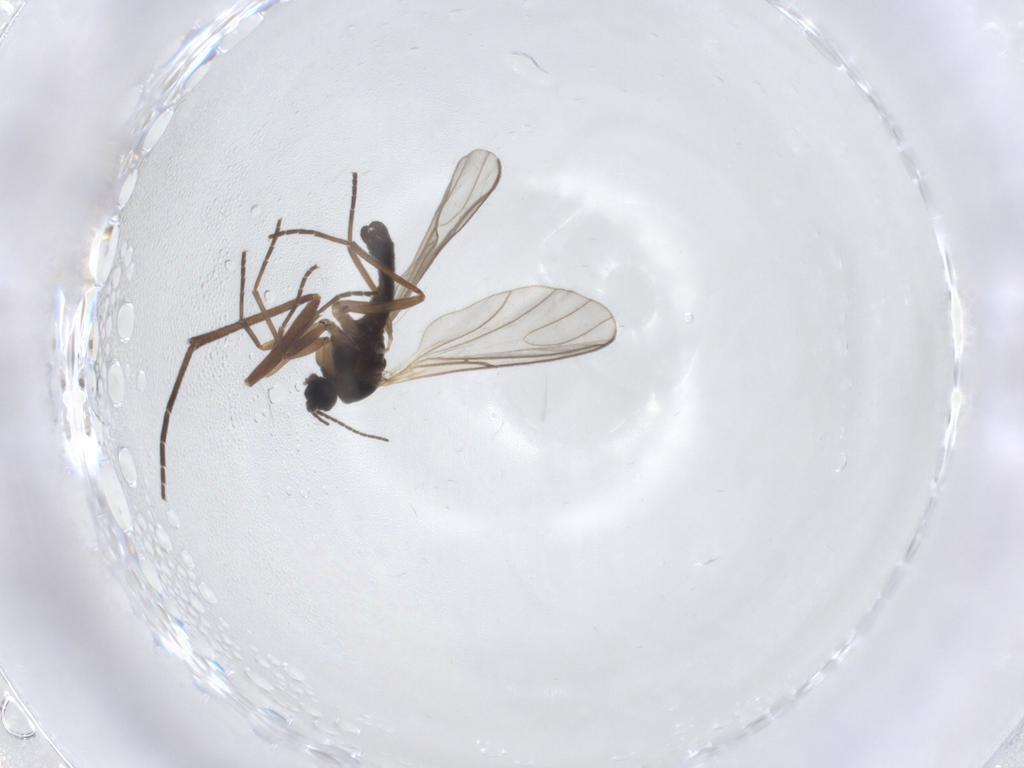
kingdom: Animalia
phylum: Arthropoda
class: Insecta
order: Diptera
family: Sciaridae
